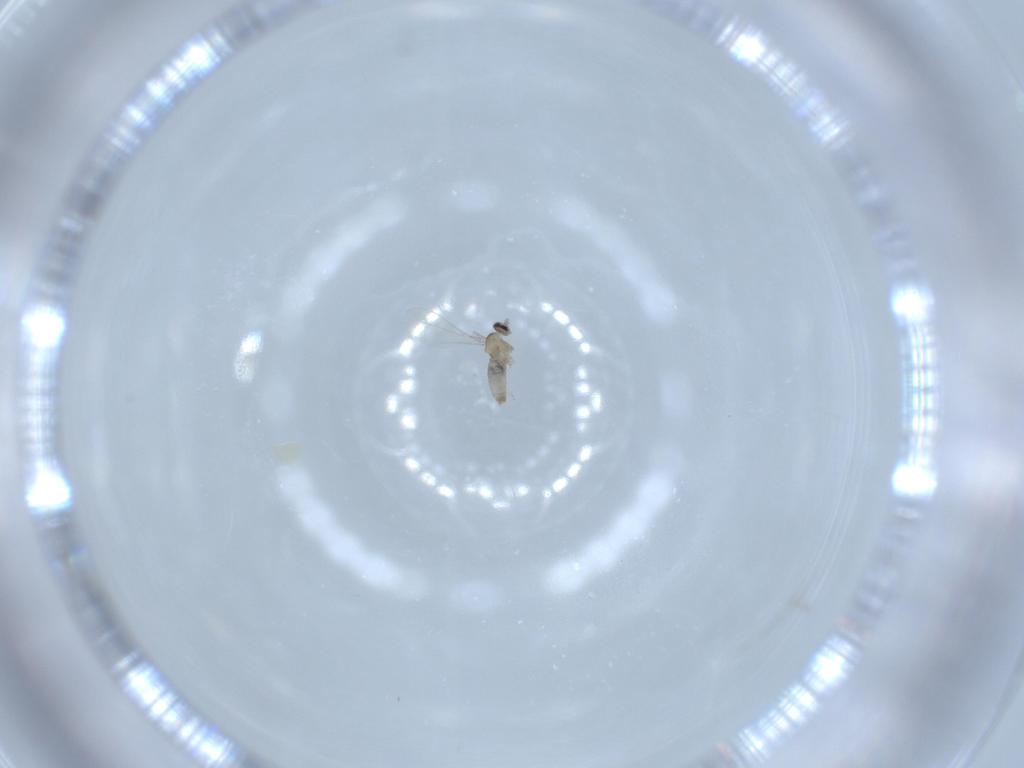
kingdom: Animalia
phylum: Arthropoda
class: Insecta
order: Diptera
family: Cecidomyiidae
